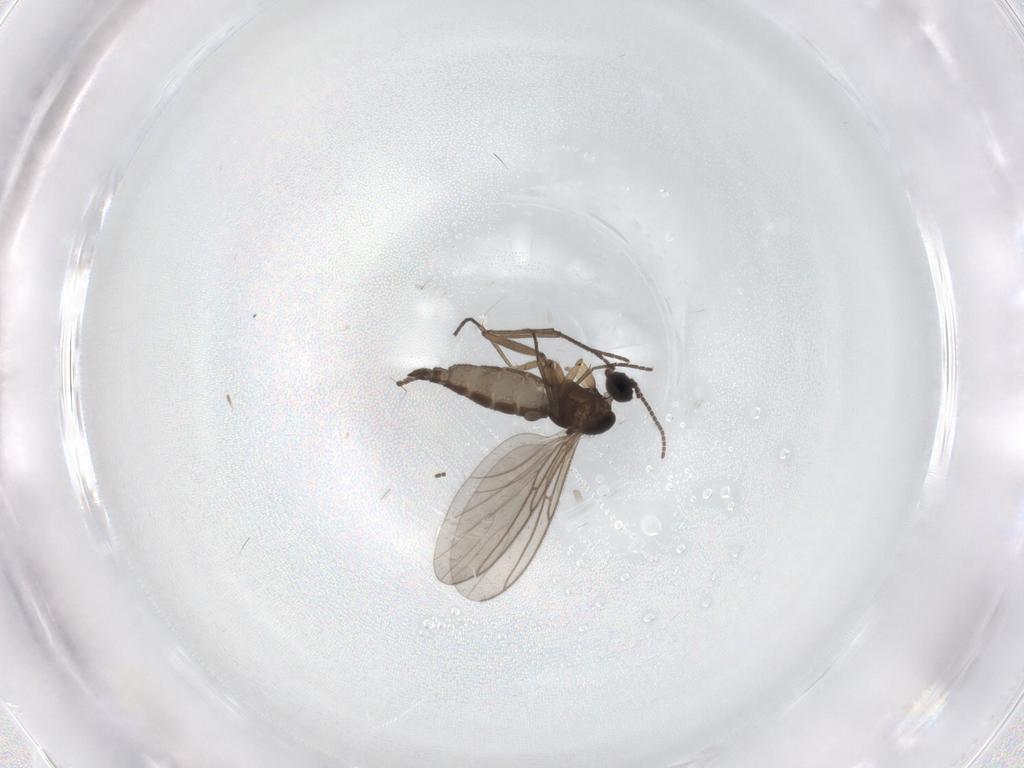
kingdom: Animalia
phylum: Arthropoda
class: Insecta
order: Diptera
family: Sciaridae
